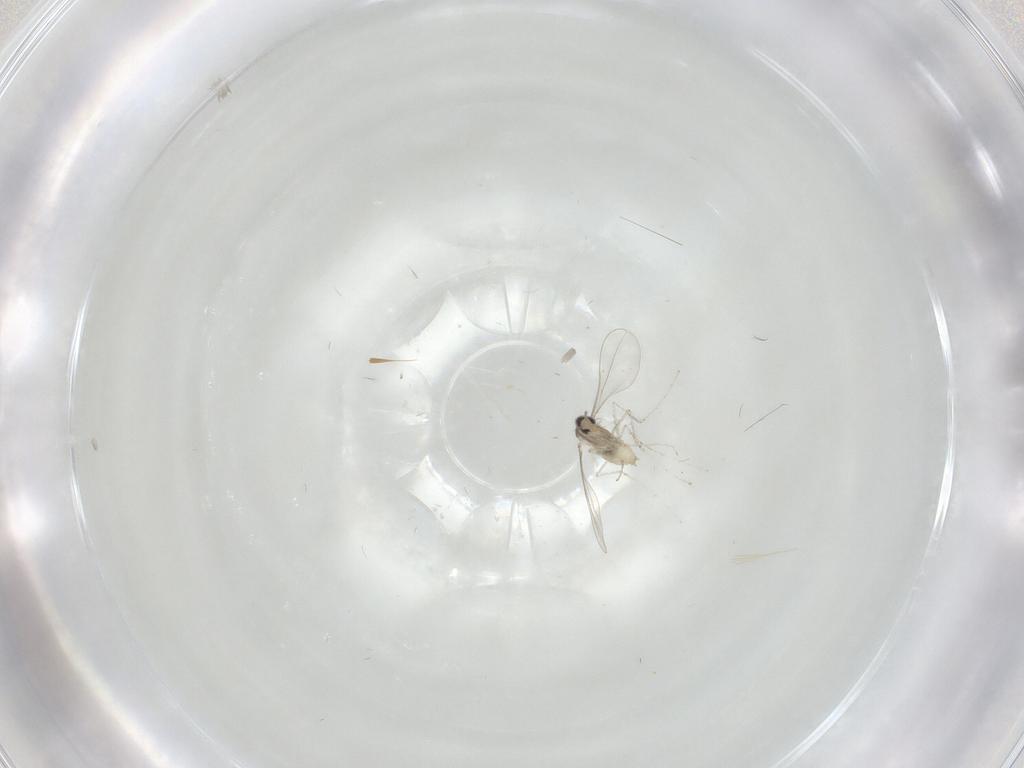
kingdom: Animalia
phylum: Arthropoda
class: Insecta
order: Diptera
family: Cecidomyiidae
